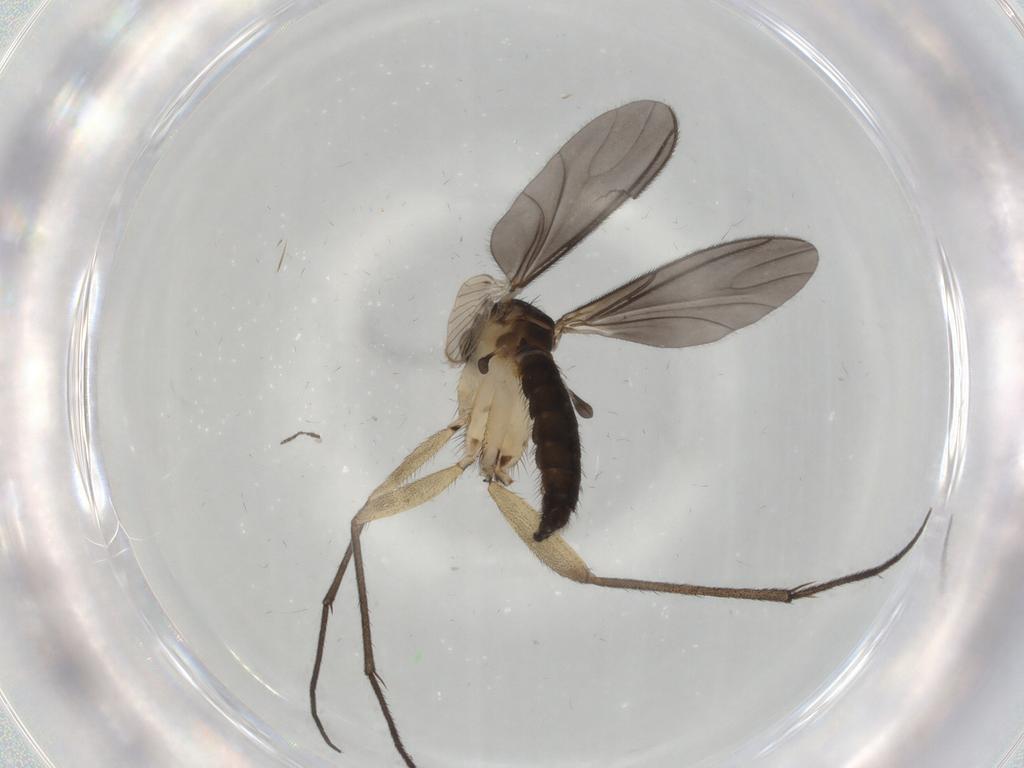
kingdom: Animalia
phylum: Arthropoda
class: Insecta
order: Diptera
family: Sciaridae
